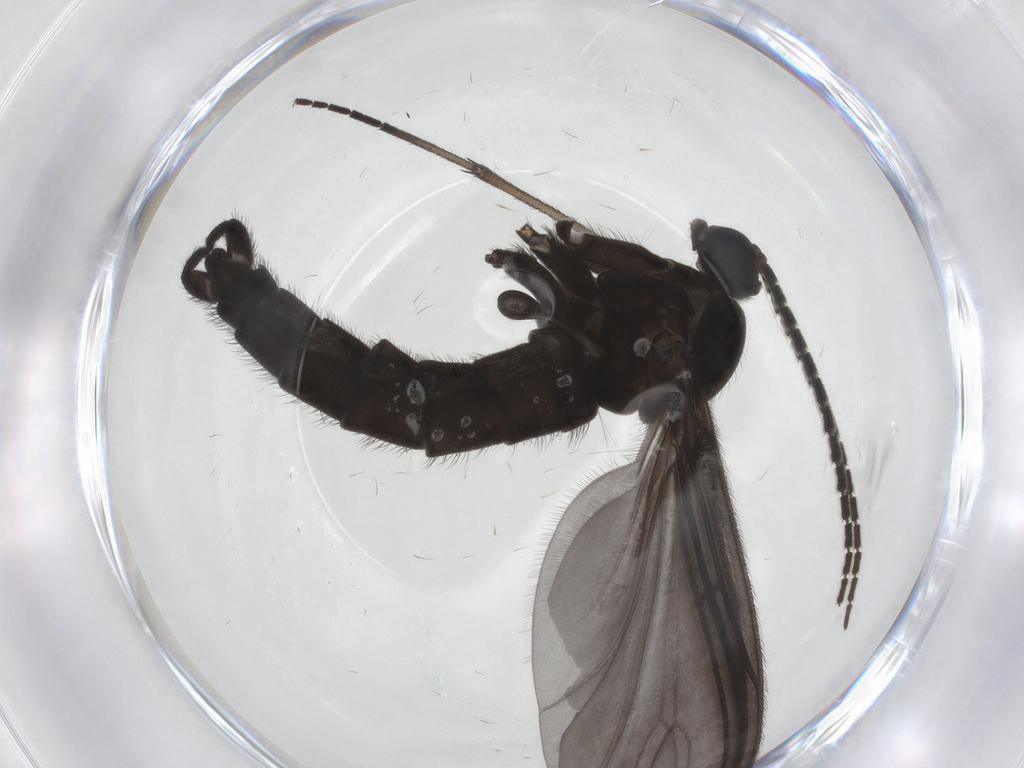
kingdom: Animalia
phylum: Arthropoda
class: Insecta
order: Diptera
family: Sciaridae
